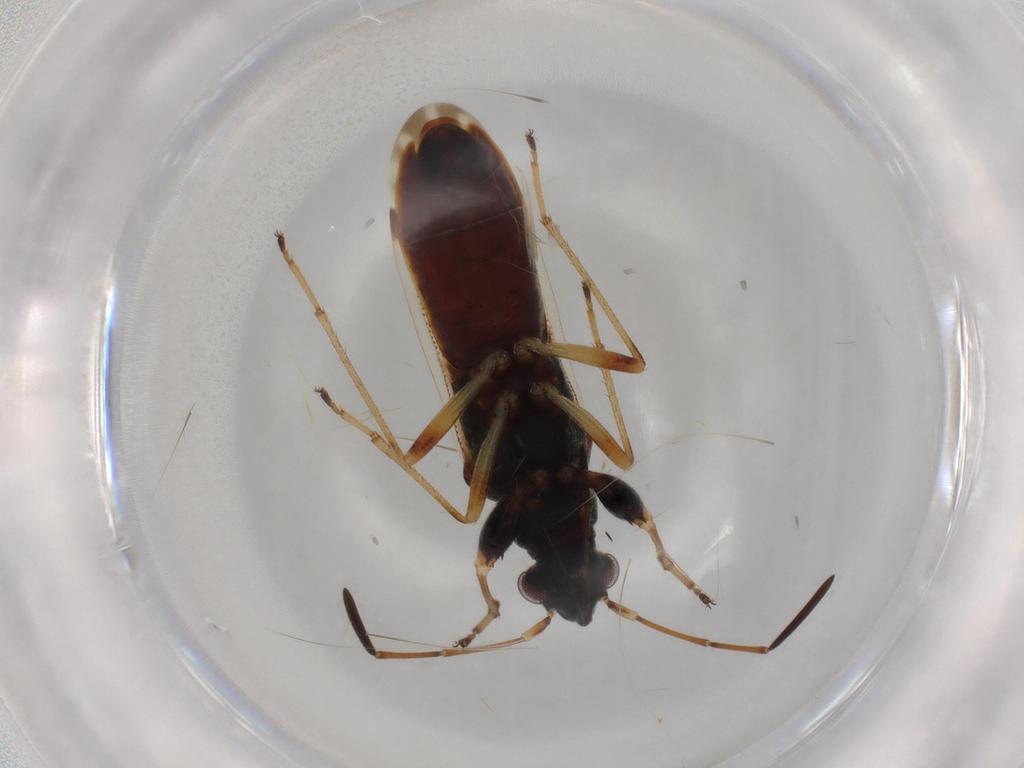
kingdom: Animalia
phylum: Arthropoda
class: Insecta
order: Hemiptera
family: Rhyparochromidae
